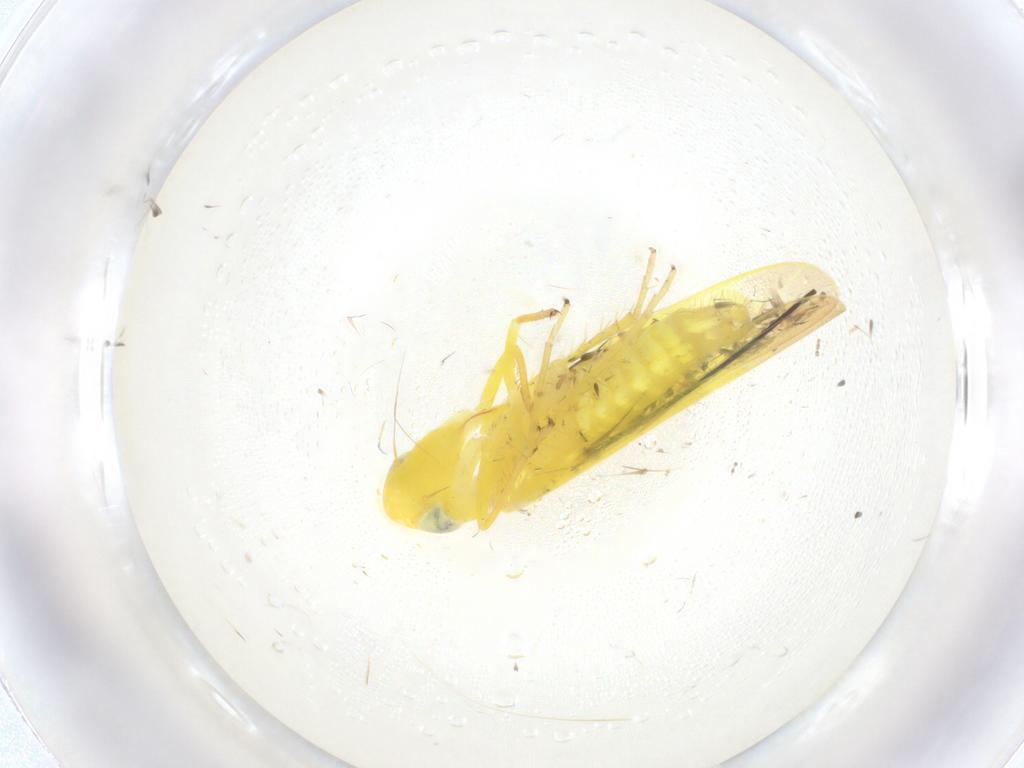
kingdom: Animalia
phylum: Arthropoda
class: Insecta
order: Hemiptera
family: Miridae
